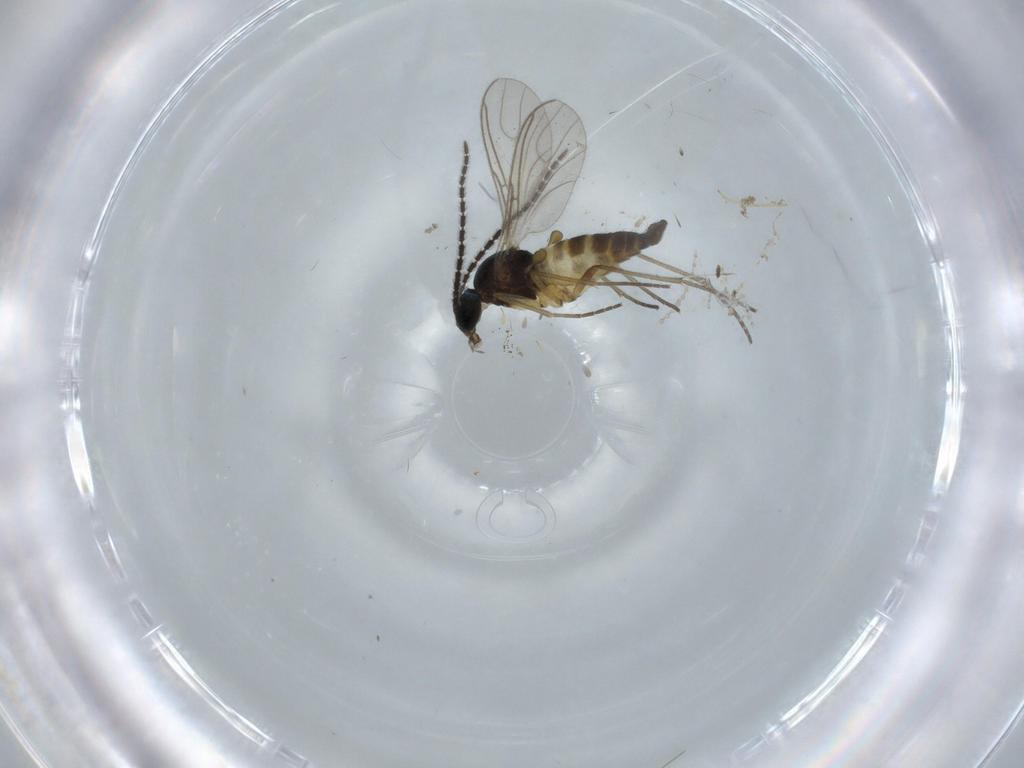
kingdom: Animalia
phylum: Arthropoda
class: Insecta
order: Diptera
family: Sciaridae
